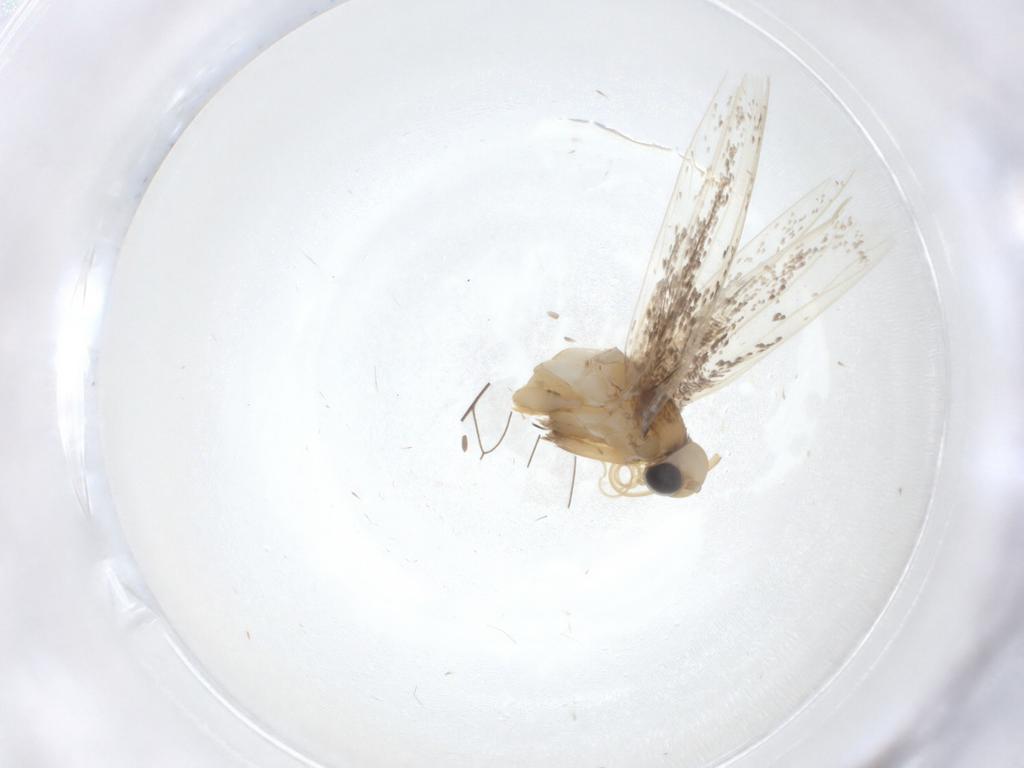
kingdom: Animalia
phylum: Arthropoda
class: Insecta
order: Lepidoptera
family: Gracillariidae
